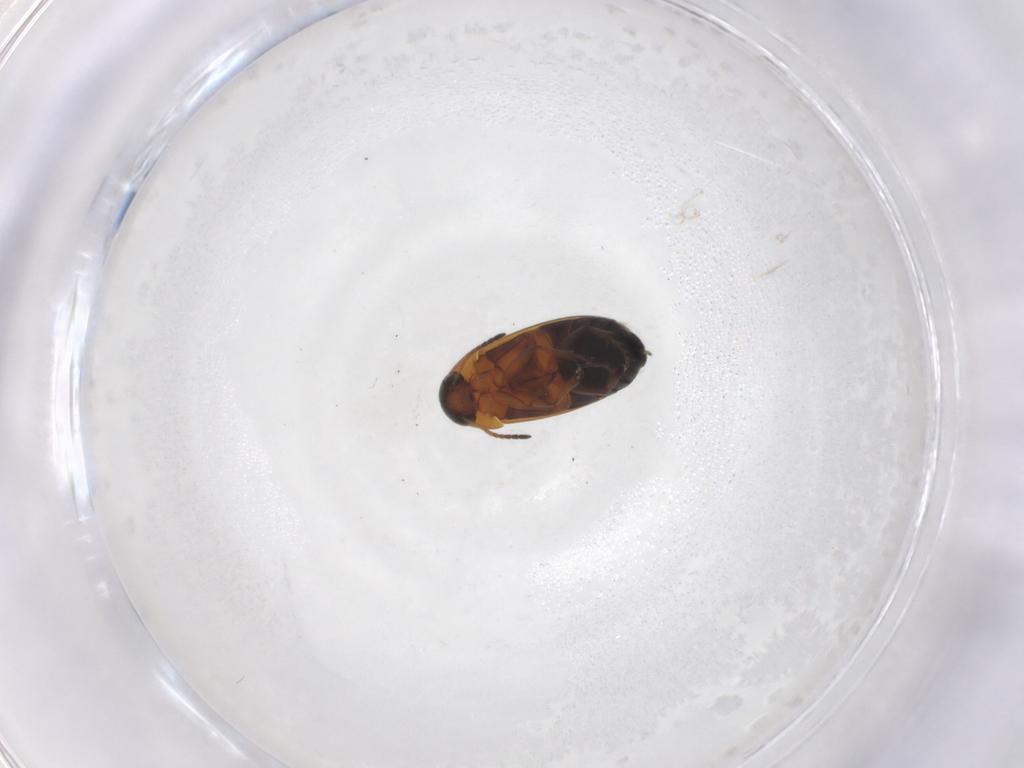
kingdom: Animalia
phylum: Arthropoda
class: Insecta
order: Coleoptera
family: Scraptiidae
